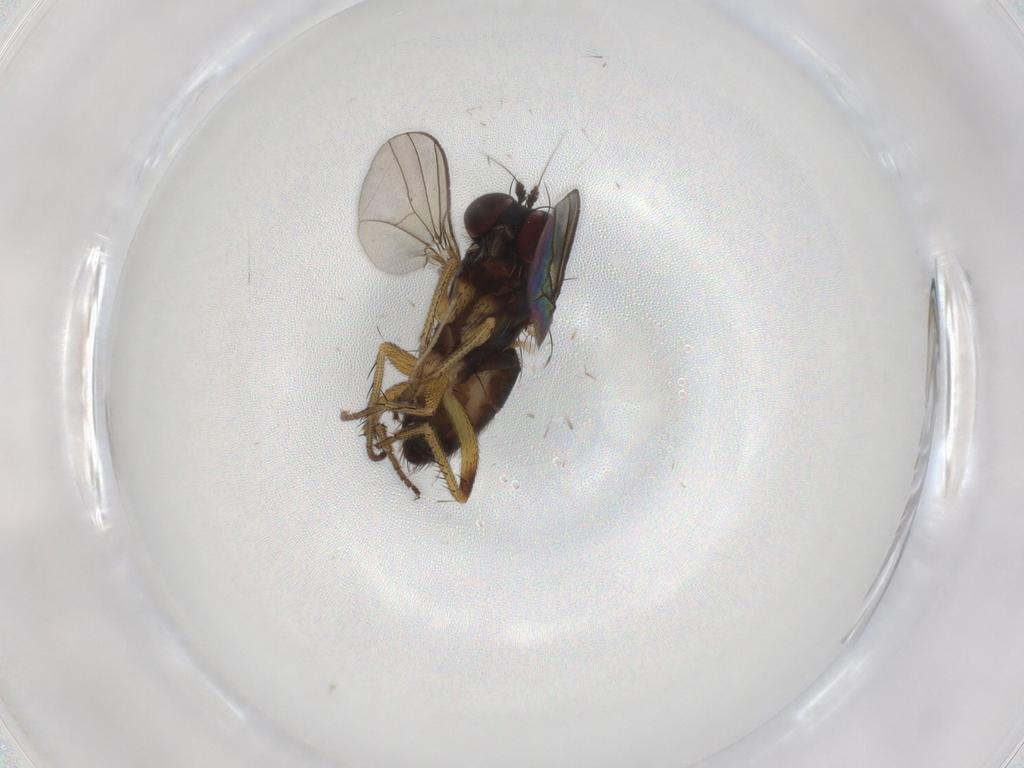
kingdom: Animalia
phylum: Arthropoda
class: Insecta
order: Diptera
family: Dolichopodidae
